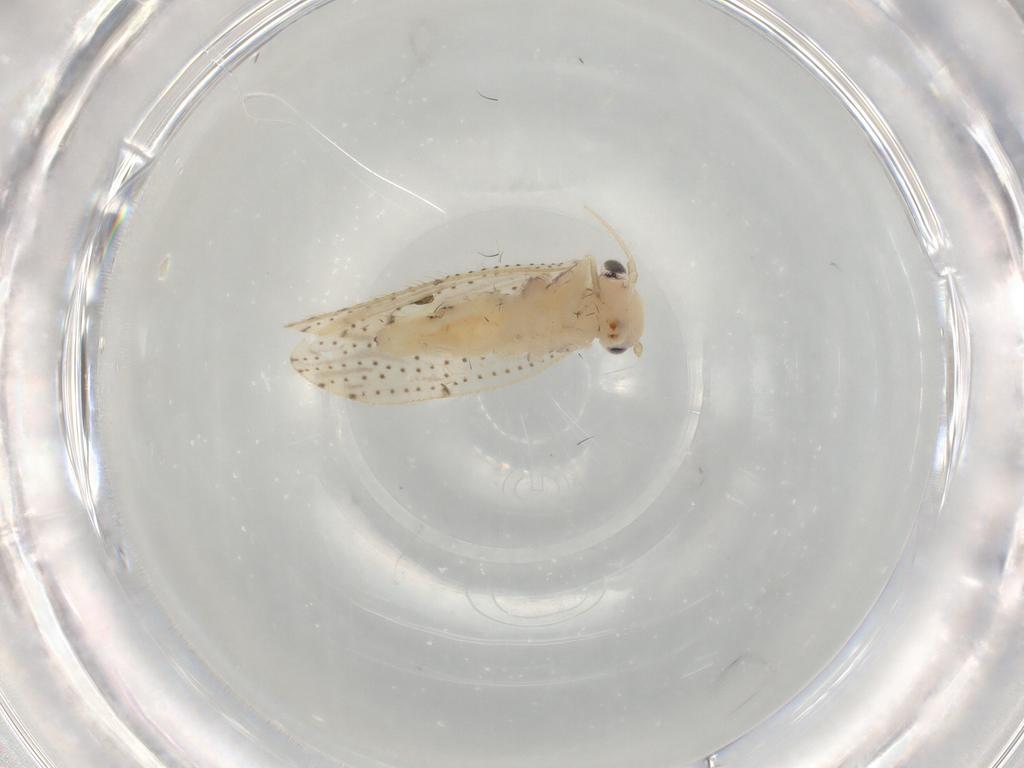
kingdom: Animalia
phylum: Arthropoda
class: Insecta
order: Psocodea
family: Myopsocidae
